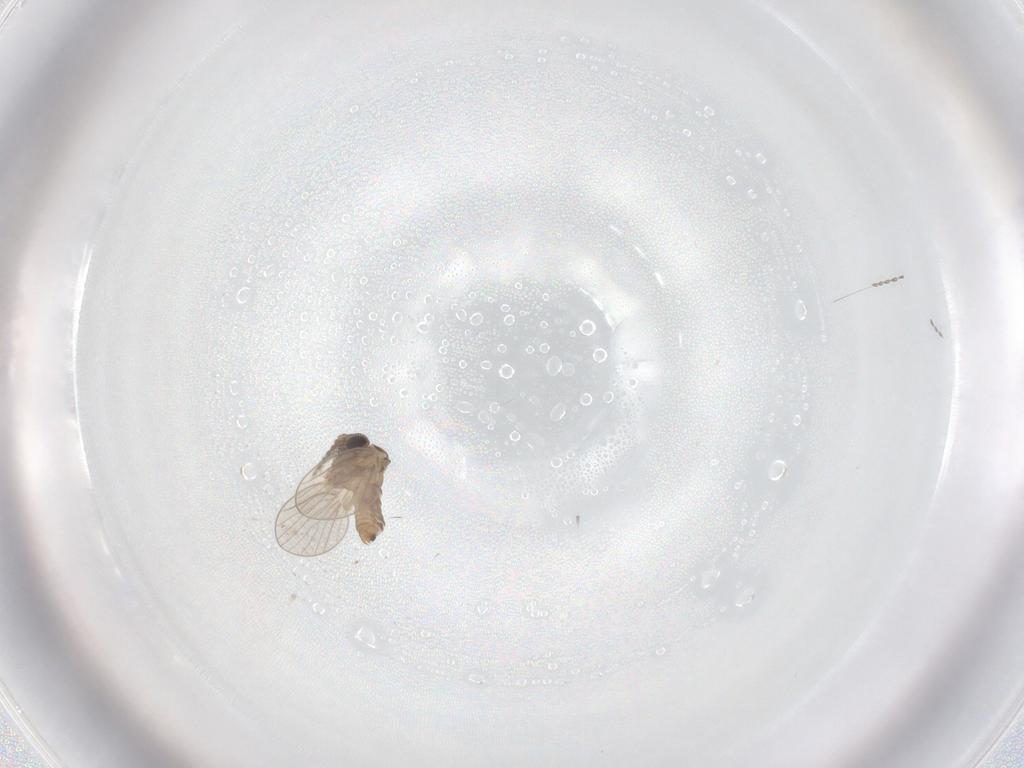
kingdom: Animalia
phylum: Arthropoda
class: Insecta
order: Diptera
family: Psychodidae
